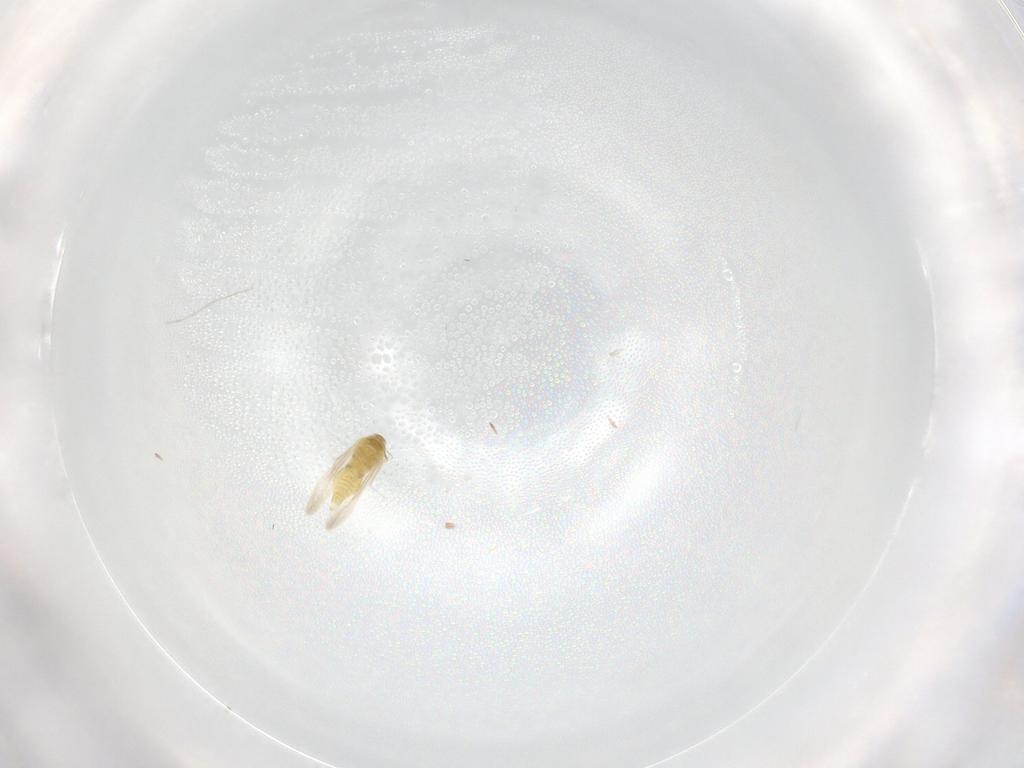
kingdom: Animalia
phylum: Arthropoda
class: Insecta
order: Hemiptera
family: Aleyrodidae
